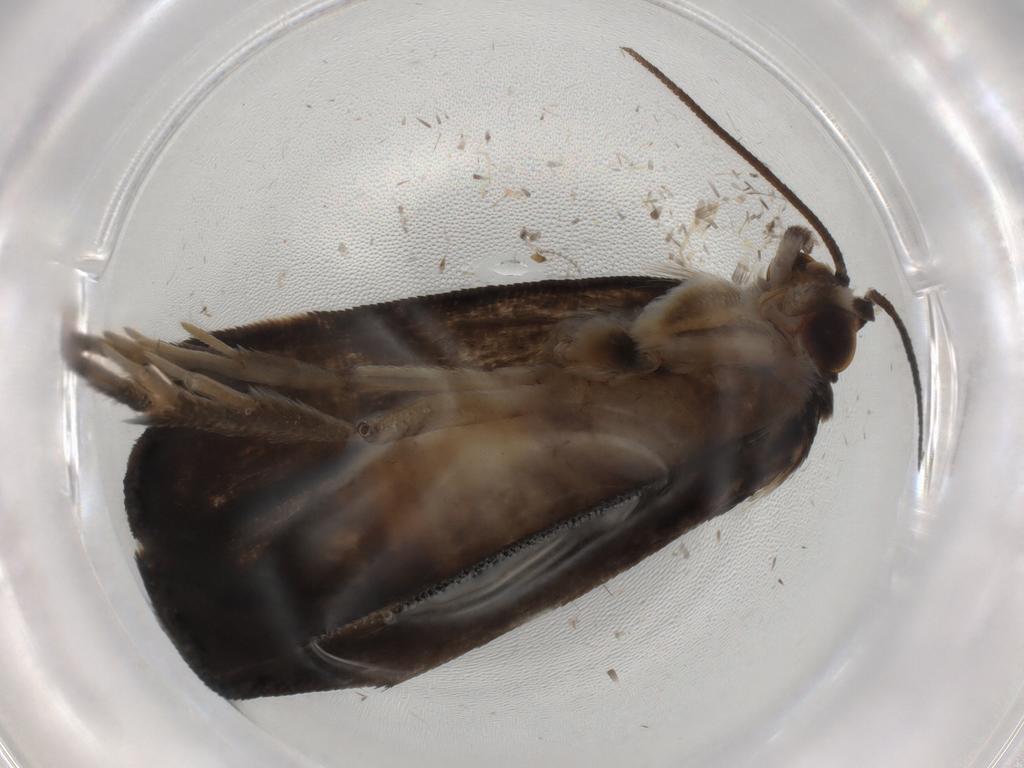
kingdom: Animalia
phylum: Arthropoda
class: Insecta
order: Lepidoptera
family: Immidae
